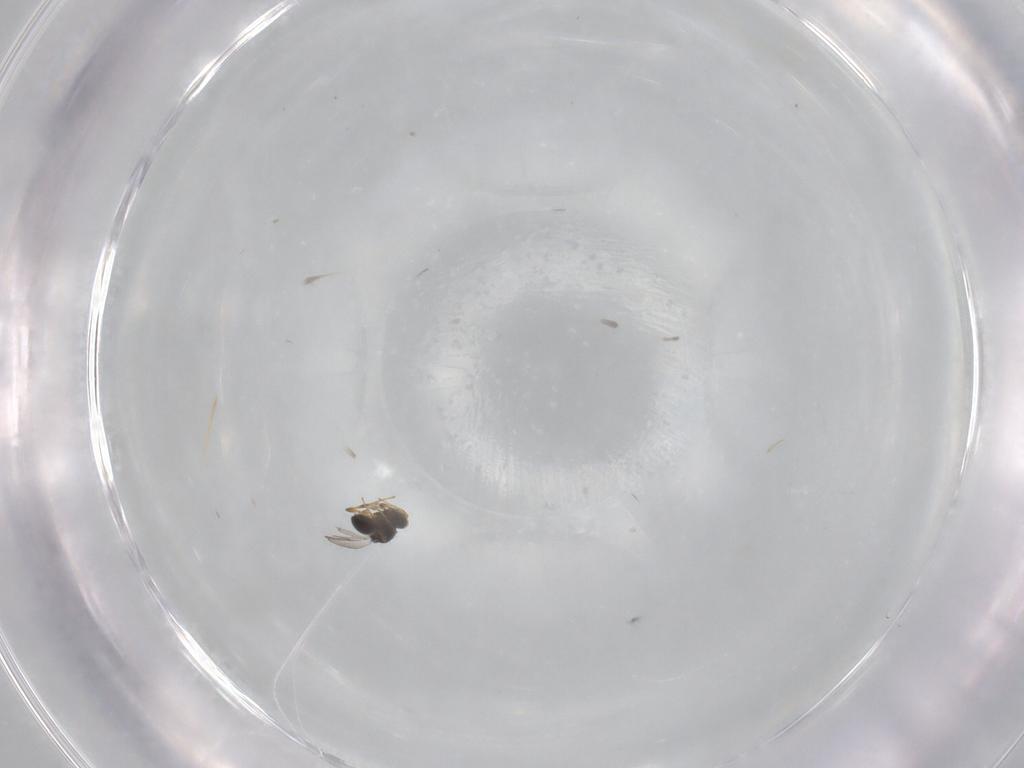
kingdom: Animalia
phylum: Arthropoda
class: Insecta
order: Hymenoptera
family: Platygastridae
